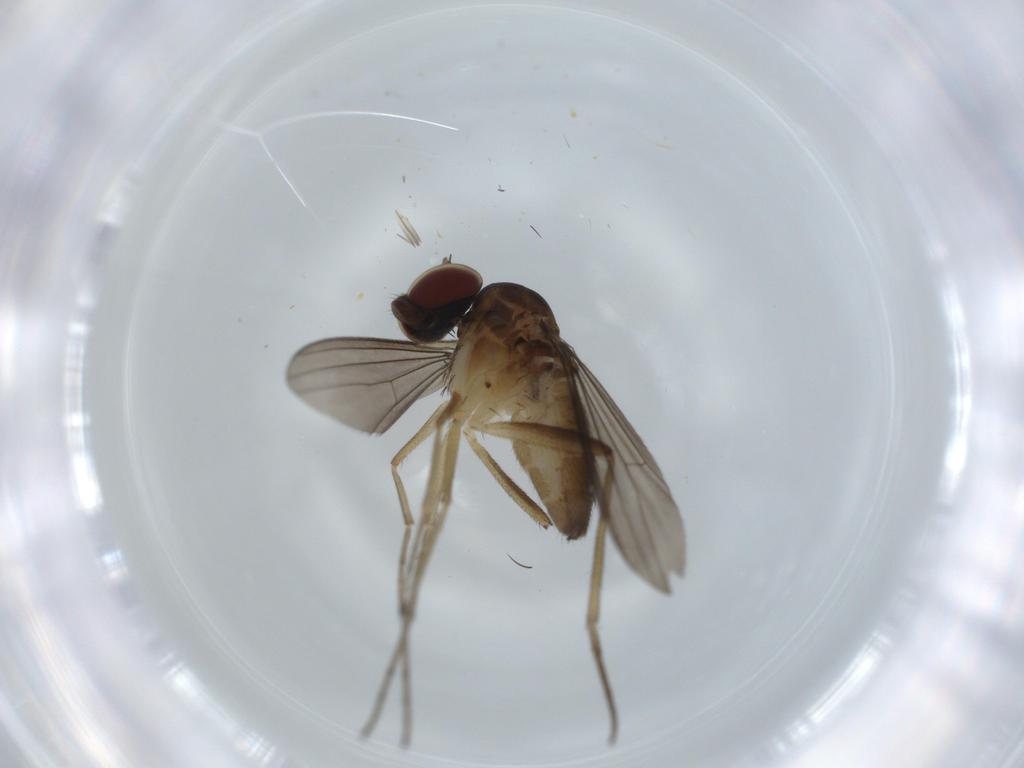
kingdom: Animalia
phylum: Arthropoda
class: Insecta
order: Diptera
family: Dolichopodidae
